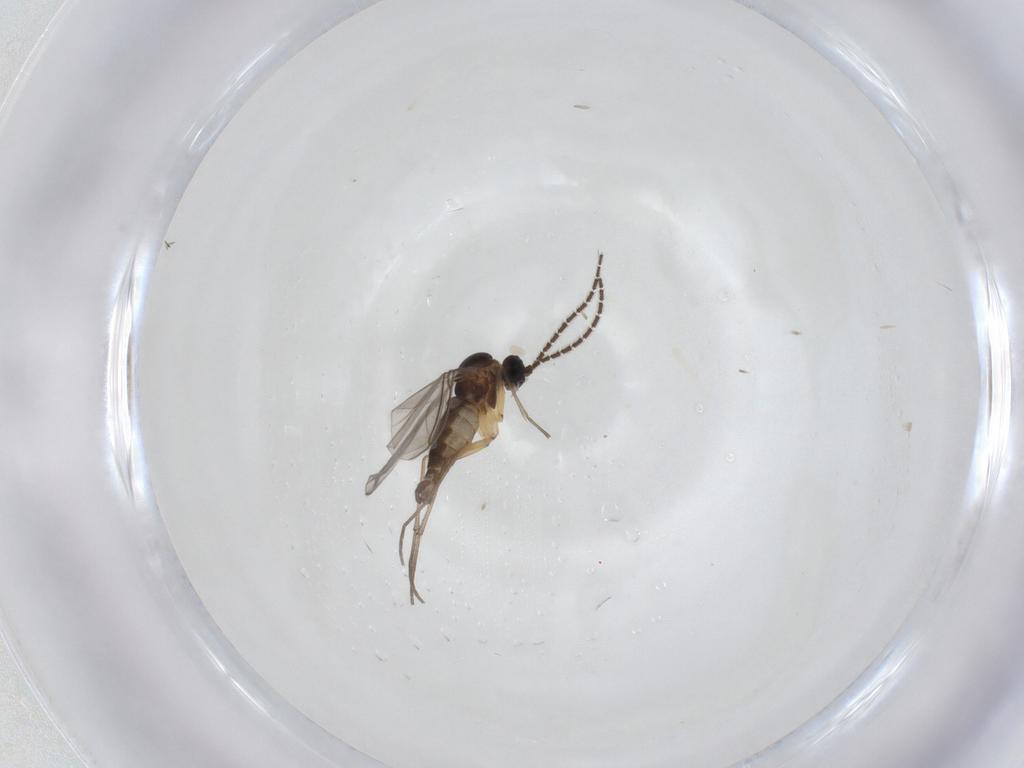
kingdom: Animalia
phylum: Arthropoda
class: Insecta
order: Diptera
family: Sciaridae
